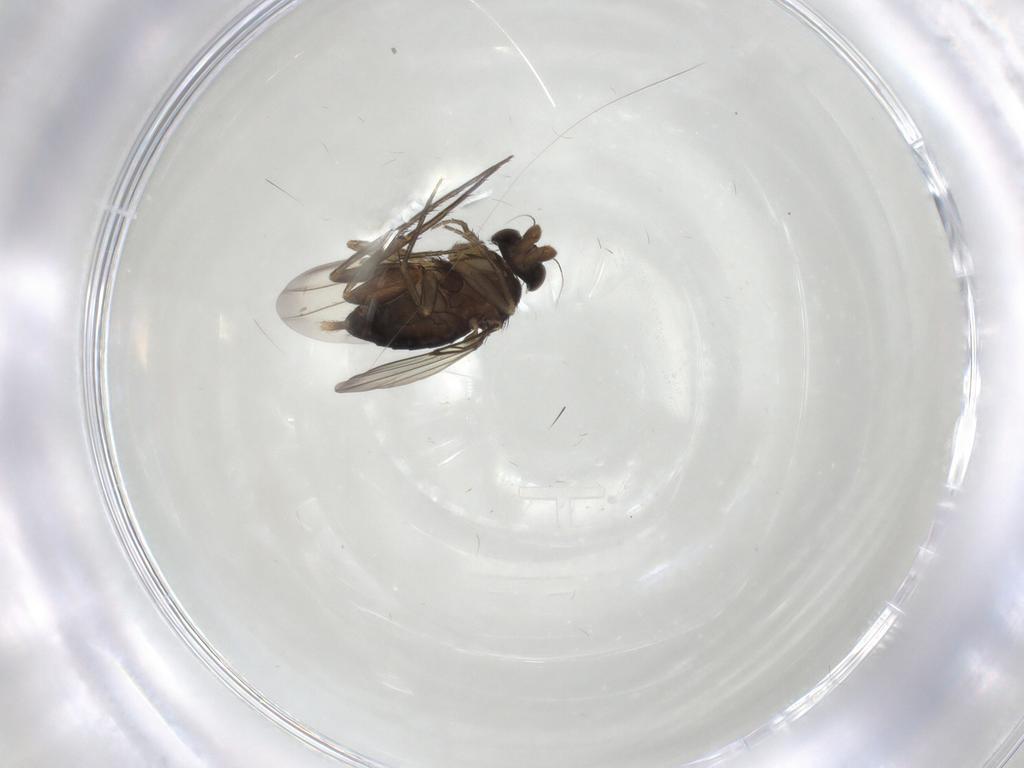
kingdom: Animalia
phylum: Arthropoda
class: Insecta
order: Diptera
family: Phoridae
